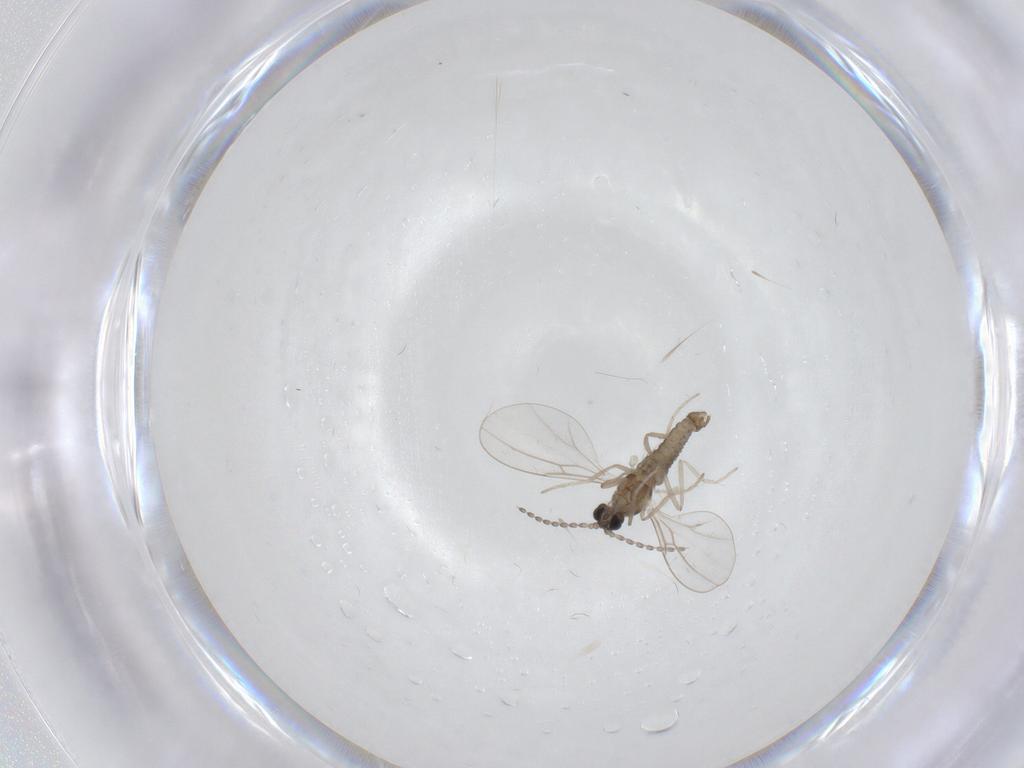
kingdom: Animalia
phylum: Arthropoda
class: Insecta
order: Diptera
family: Cecidomyiidae
